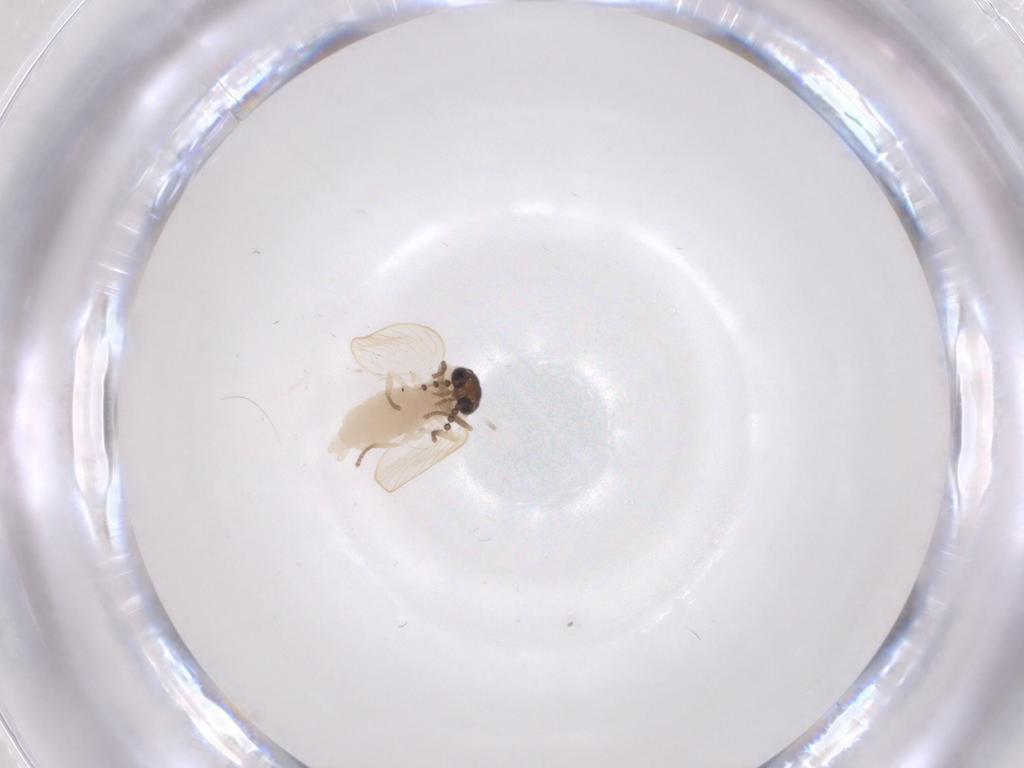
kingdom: Animalia
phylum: Arthropoda
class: Insecta
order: Diptera
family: Psychodidae
